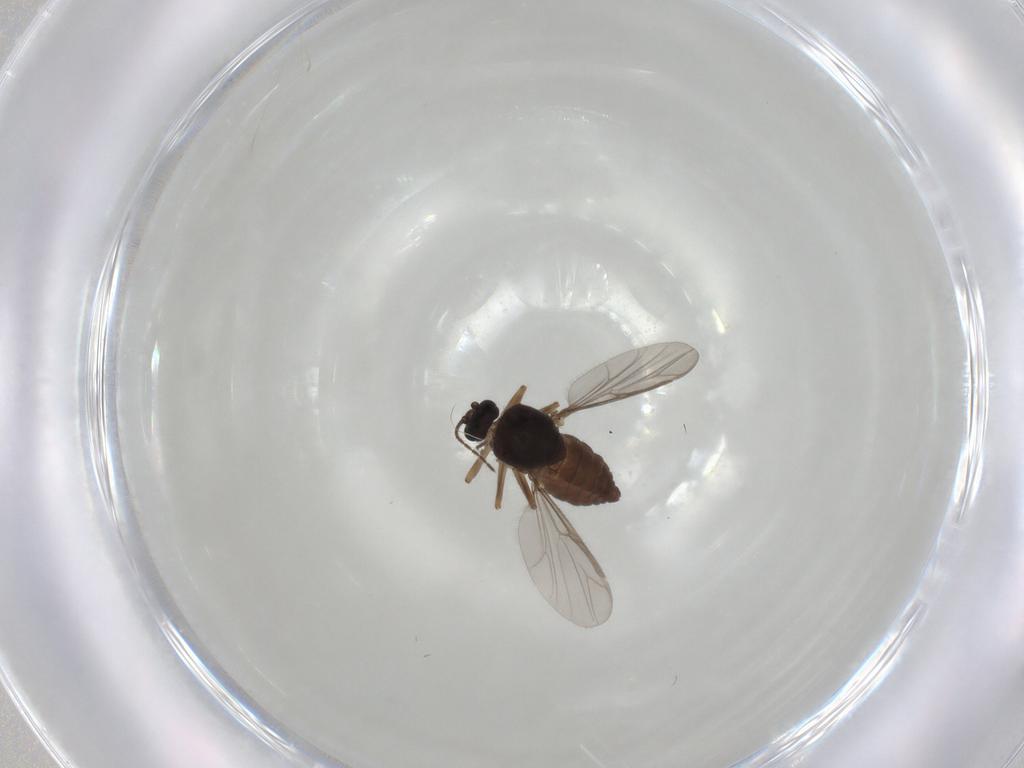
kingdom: Animalia
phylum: Arthropoda
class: Insecta
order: Diptera
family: Ceratopogonidae
